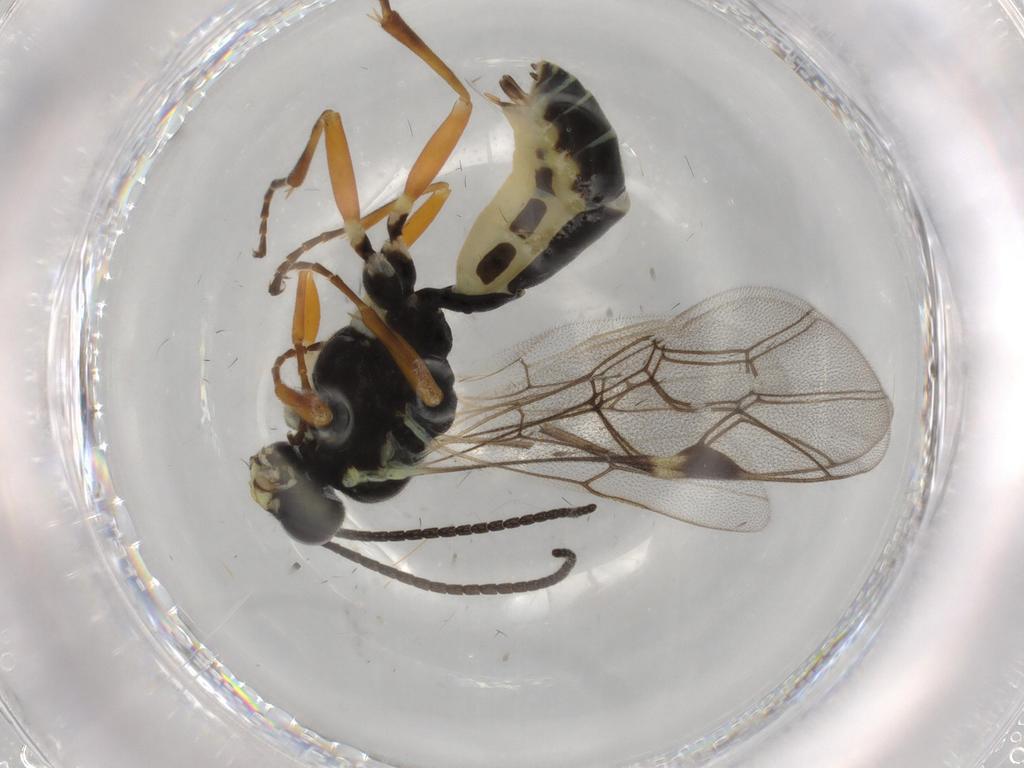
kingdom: Animalia
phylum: Arthropoda
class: Insecta
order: Hymenoptera
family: Ichneumonidae
